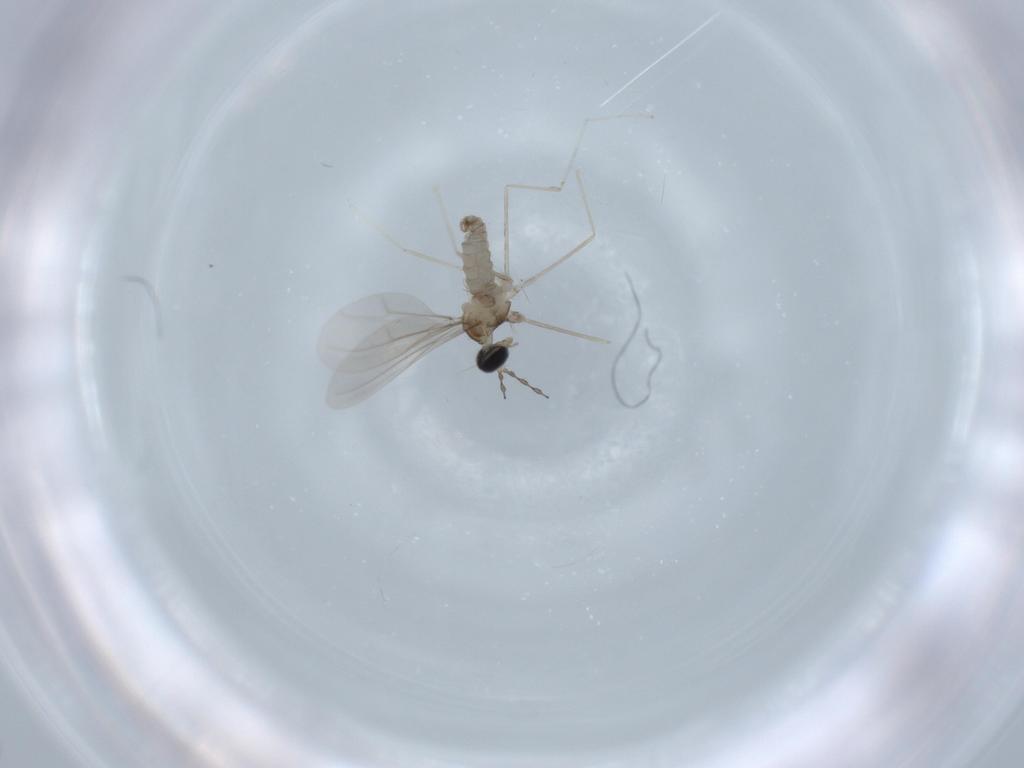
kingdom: Animalia
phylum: Arthropoda
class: Insecta
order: Diptera
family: Cecidomyiidae
